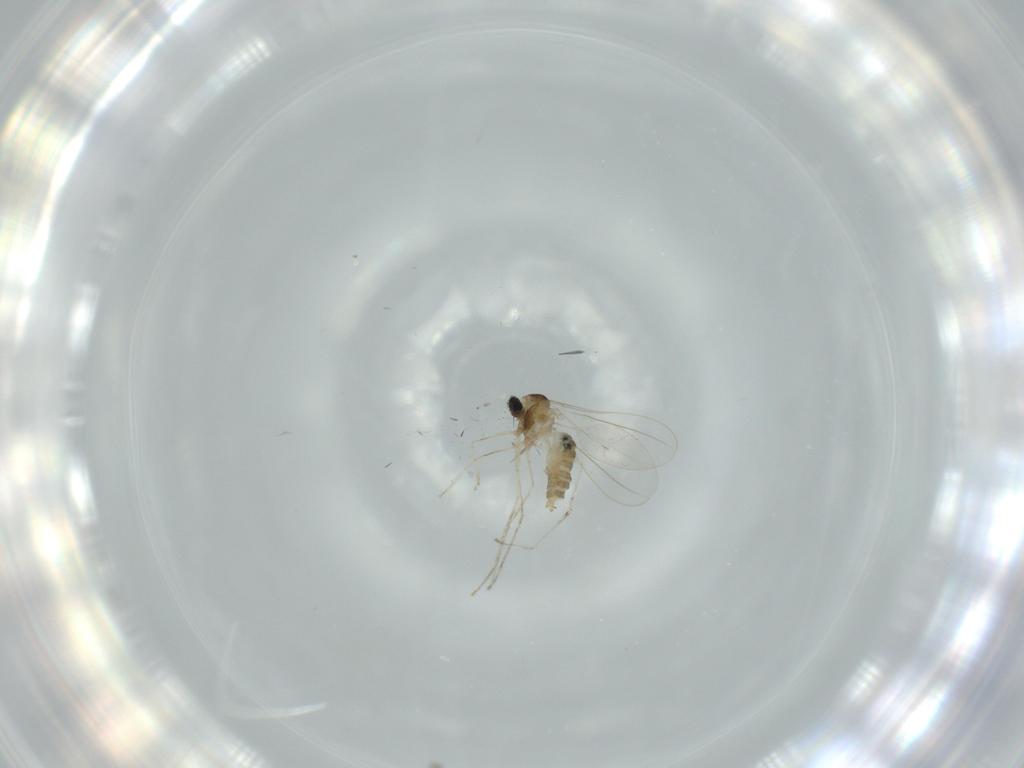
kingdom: Animalia
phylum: Arthropoda
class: Insecta
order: Diptera
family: Cecidomyiidae
